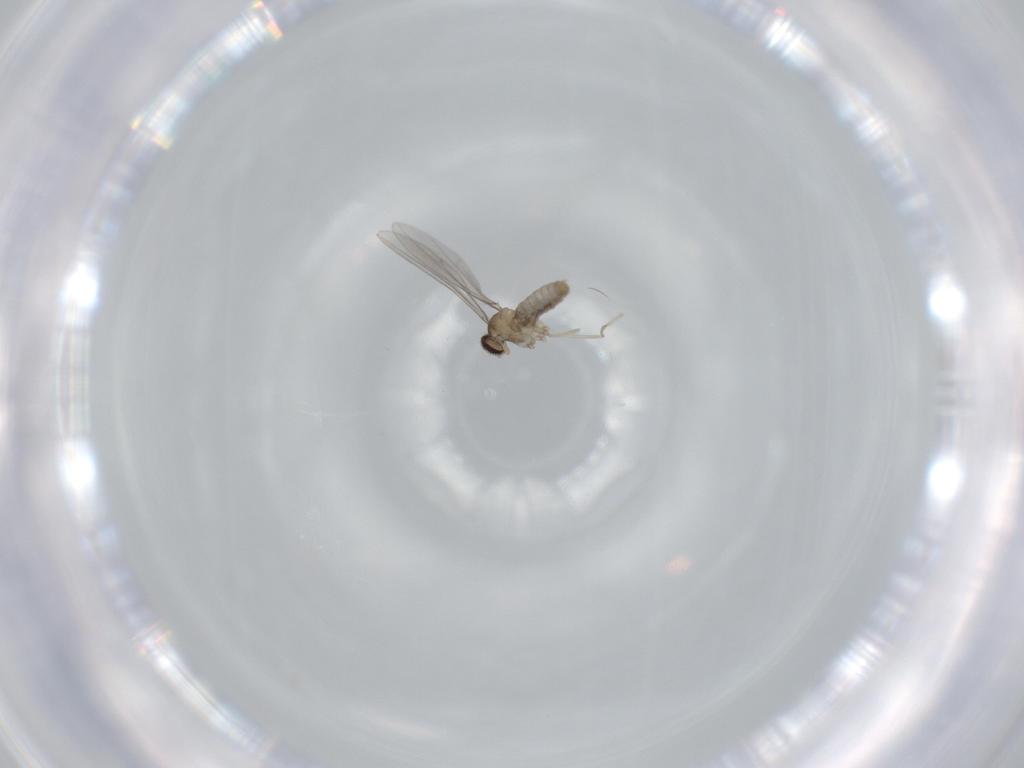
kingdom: Animalia
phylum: Arthropoda
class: Insecta
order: Diptera
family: Cecidomyiidae
